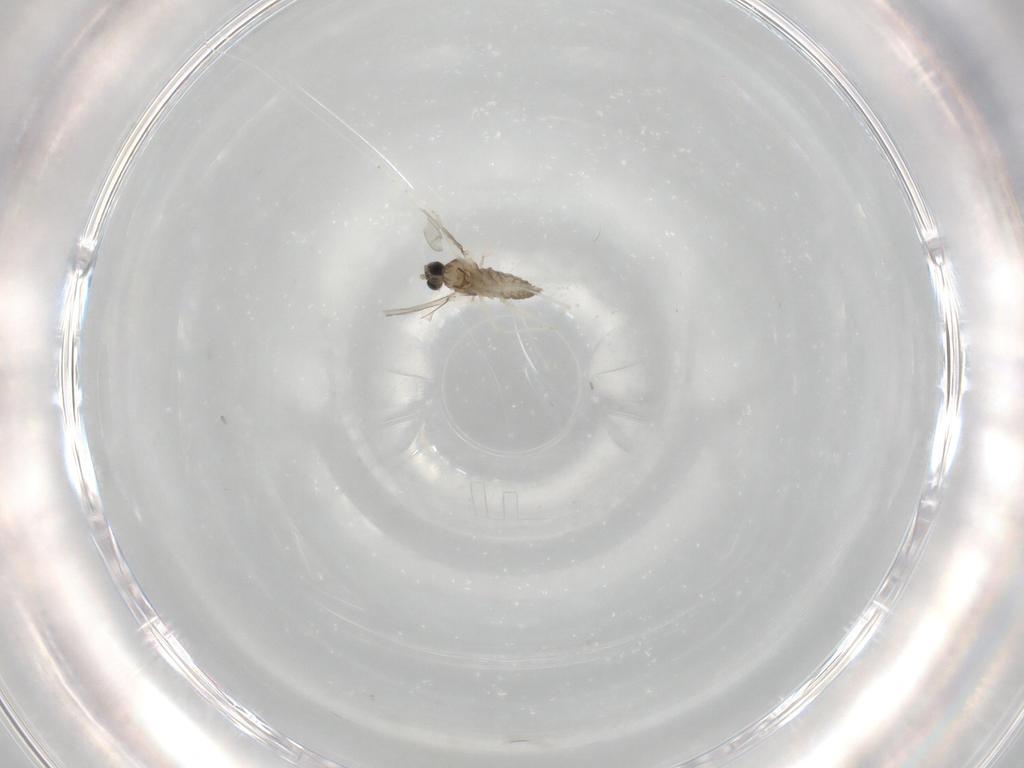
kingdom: Animalia
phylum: Arthropoda
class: Insecta
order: Diptera
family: Cecidomyiidae
